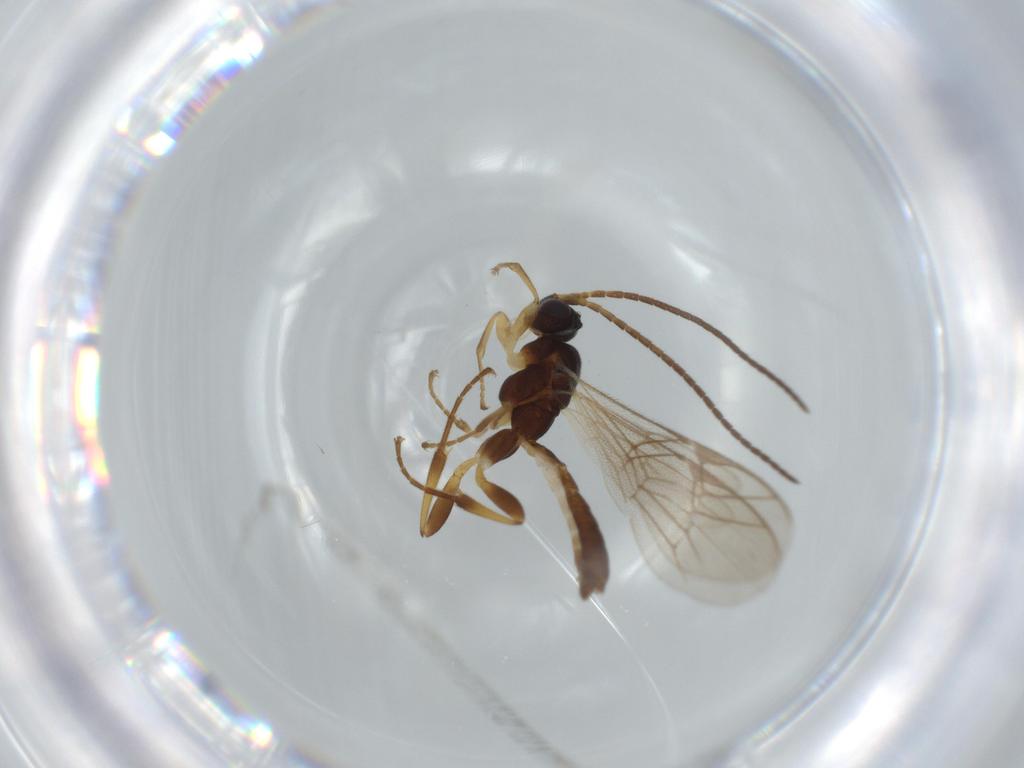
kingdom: Animalia
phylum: Arthropoda
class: Insecta
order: Hymenoptera
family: Ichneumonidae
